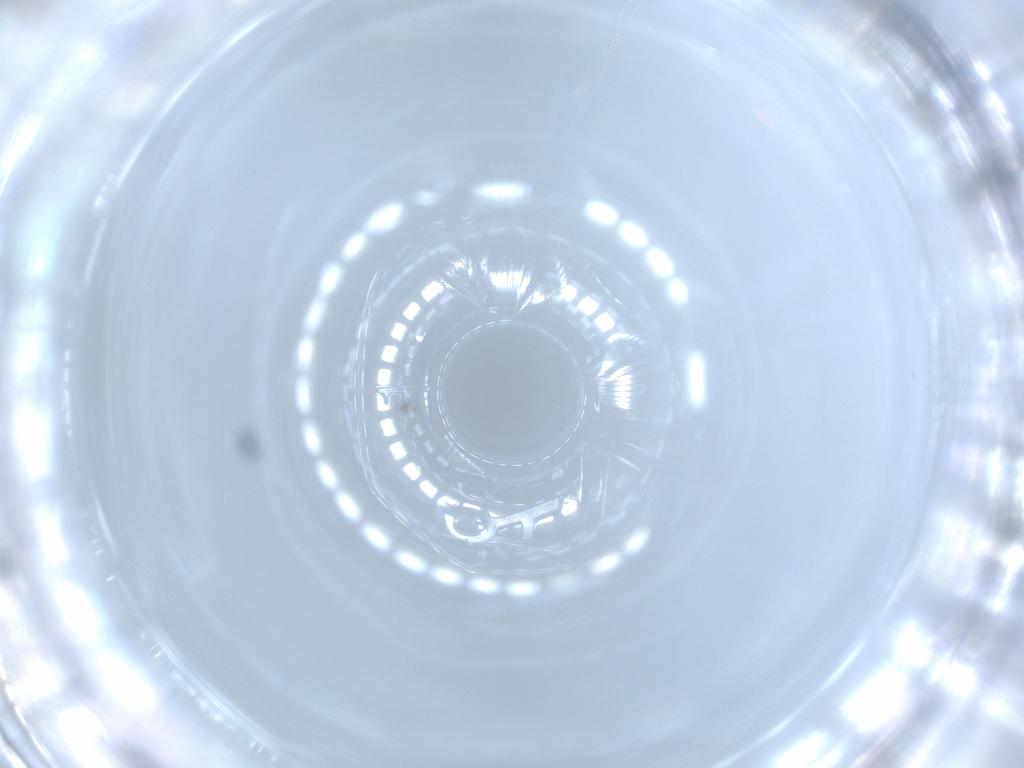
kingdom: Animalia
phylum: Arthropoda
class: Insecta
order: Diptera
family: Cecidomyiidae
